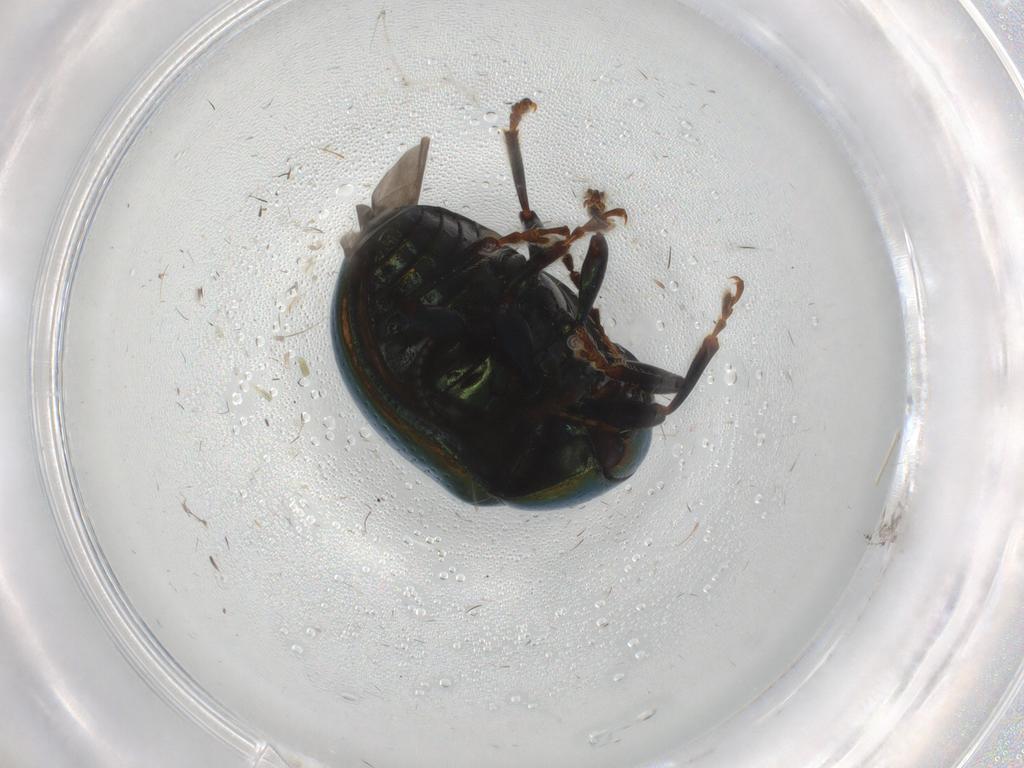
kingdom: Animalia
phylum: Arthropoda
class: Insecta
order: Coleoptera
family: Chrysomelidae
